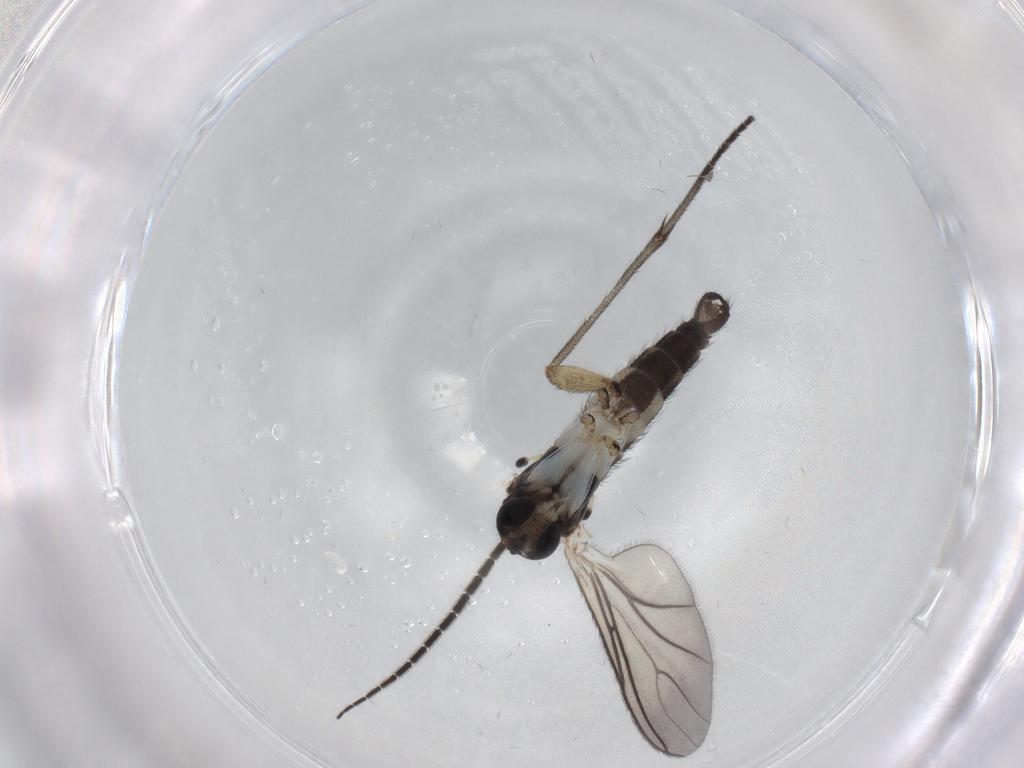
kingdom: Animalia
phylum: Arthropoda
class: Insecta
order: Diptera
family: Sciaridae
